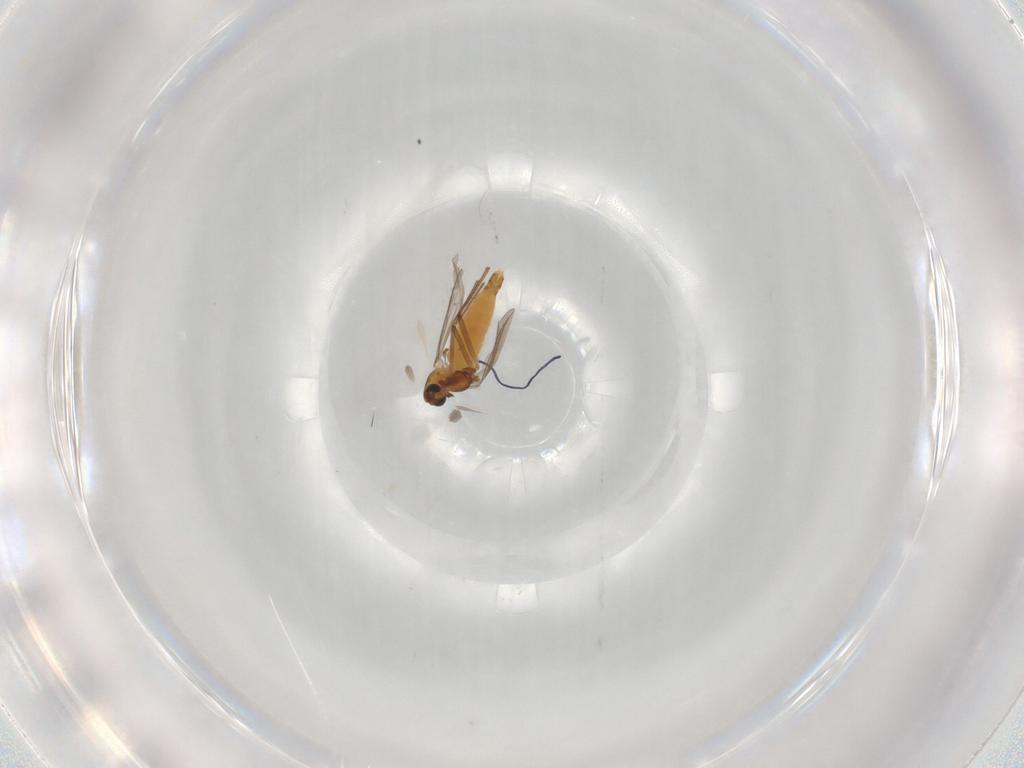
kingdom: Animalia
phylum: Arthropoda
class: Insecta
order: Diptera
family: Chironomidae
